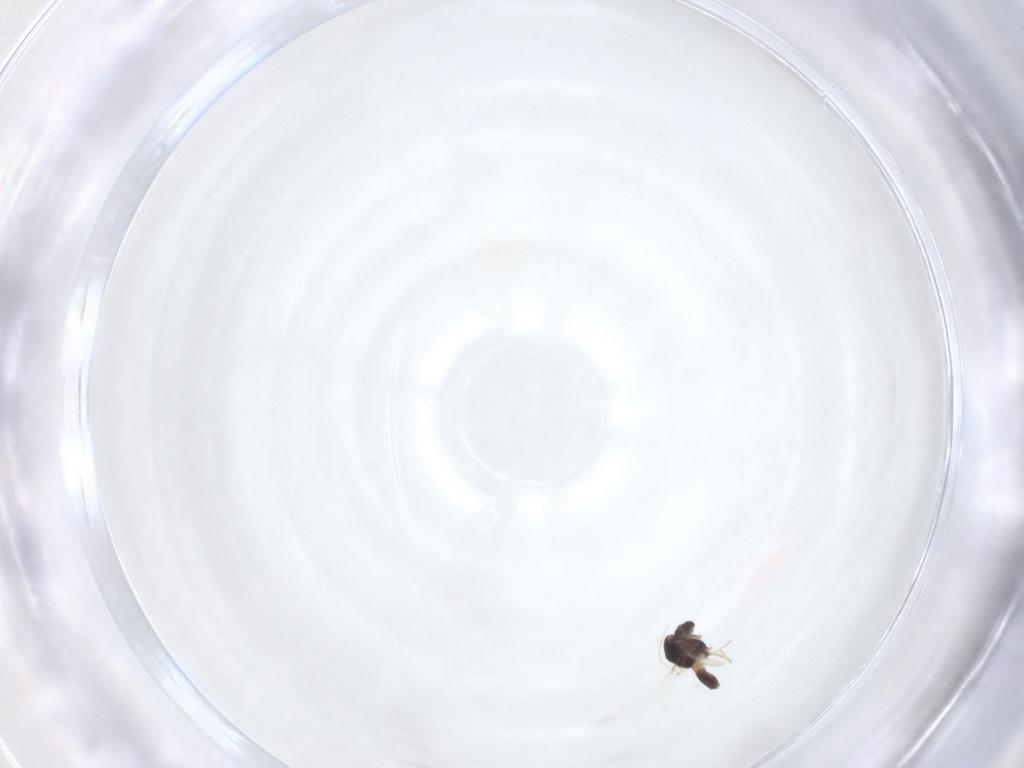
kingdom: Animalia
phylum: Arthropoda
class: Insecta
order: Diptera
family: Chironomidae
